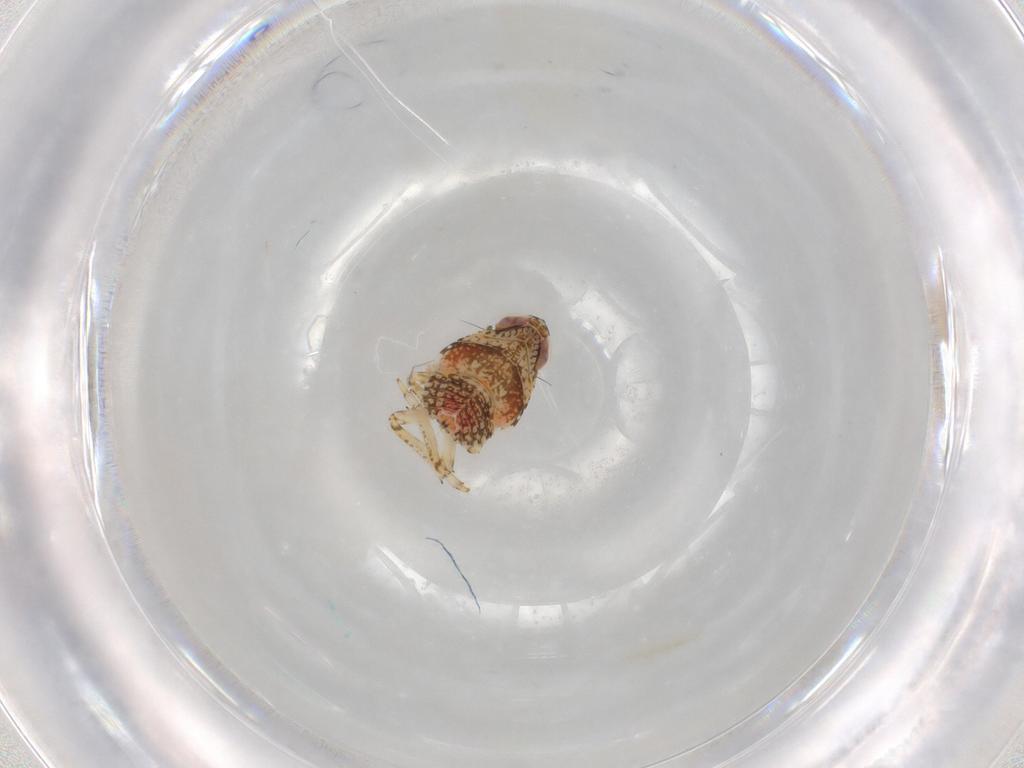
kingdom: Animalia
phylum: Arthropoda
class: Insecta
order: Hemiptera
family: Issidae
